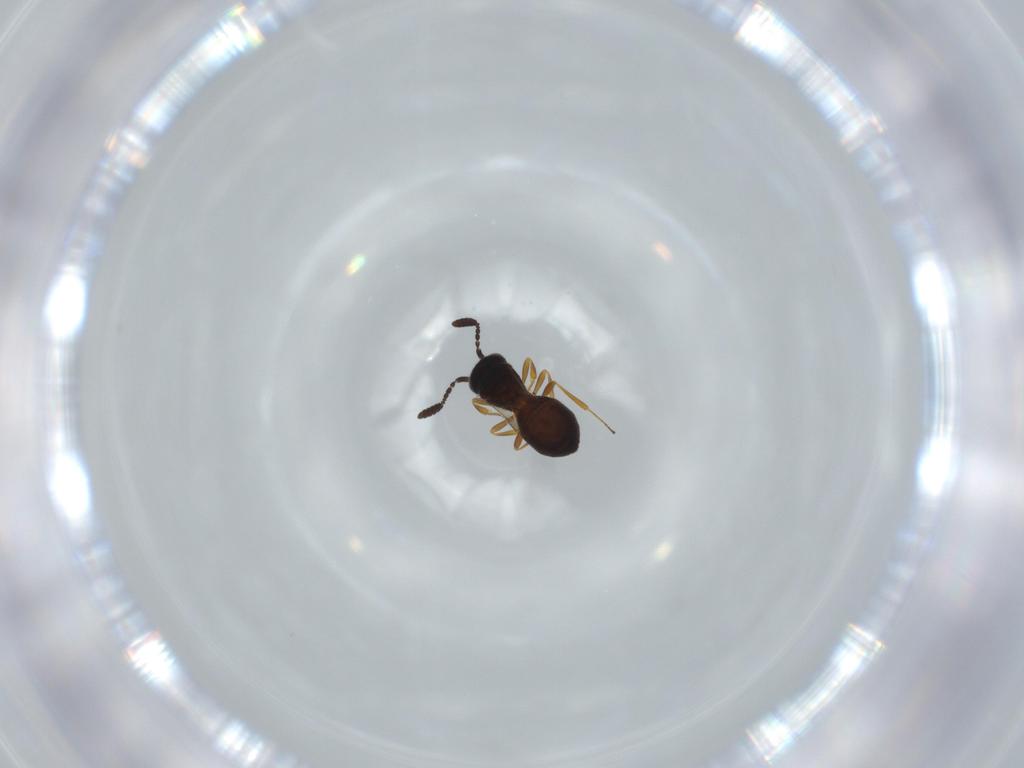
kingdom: Animalia
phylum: Arthropoda
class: Insecta
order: Hymenoptera
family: Scelionidae
